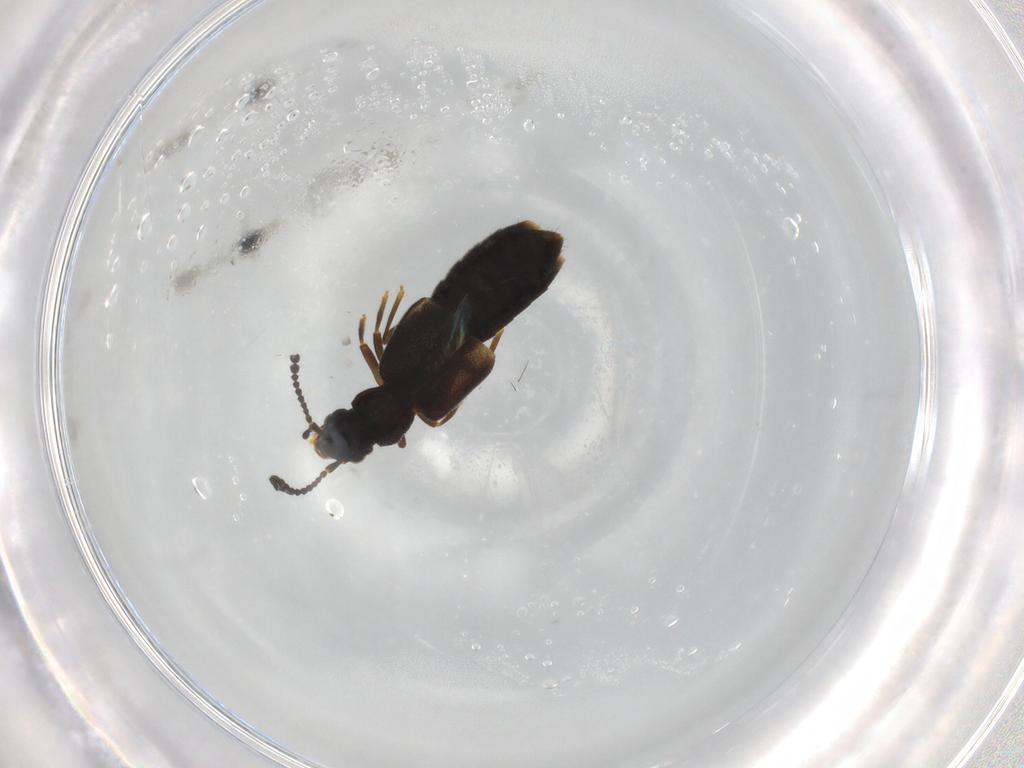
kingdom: Animalia
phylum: Arthropoda
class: Insecta
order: Coleoptera
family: Staphylinidae
